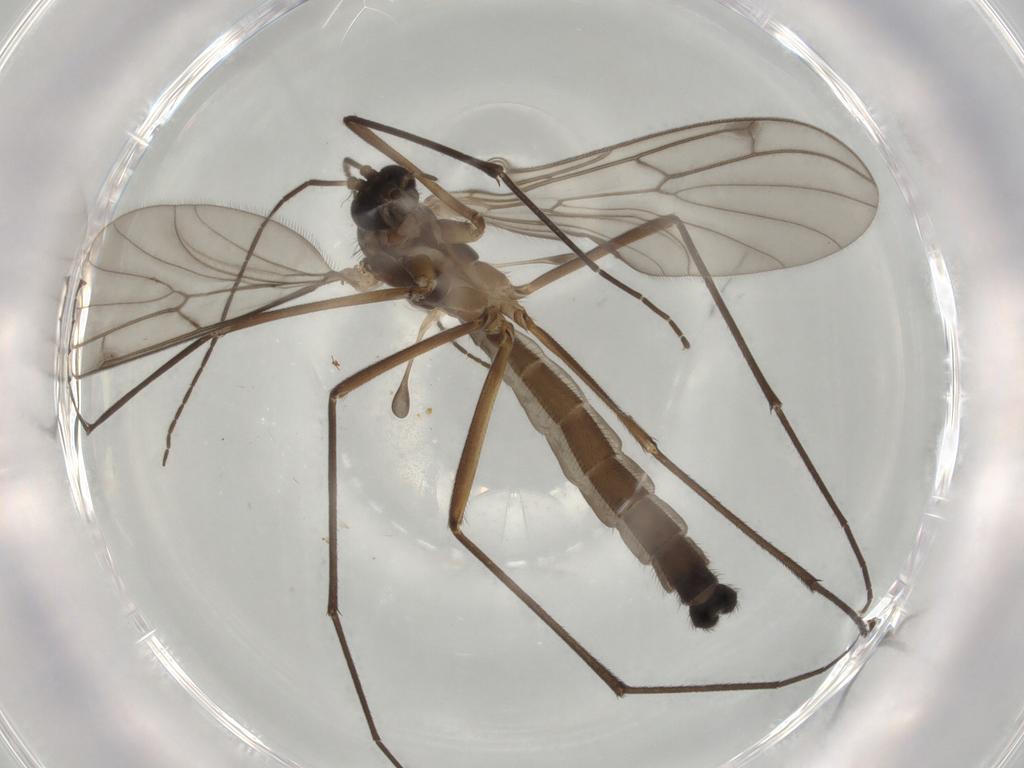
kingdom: Animalia
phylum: Arthropoda
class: Insecta
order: Diptera
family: Bolitophilidae
